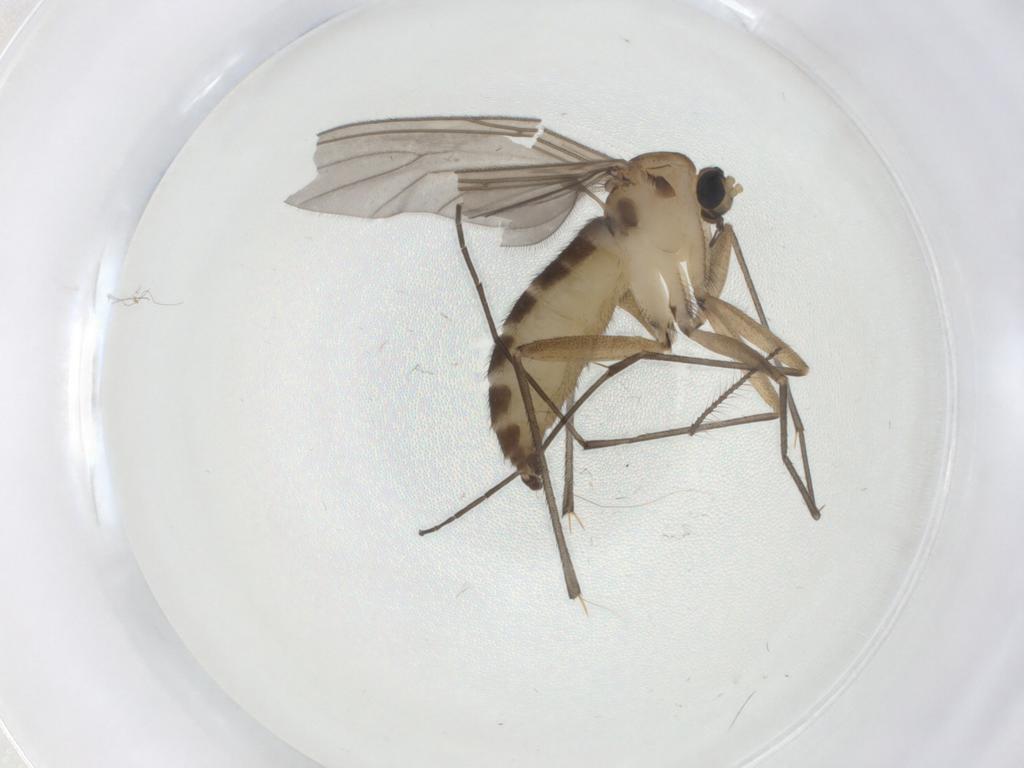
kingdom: Animalia
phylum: Arthropoda
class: Insecta
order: Diptera
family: Sciaridae
